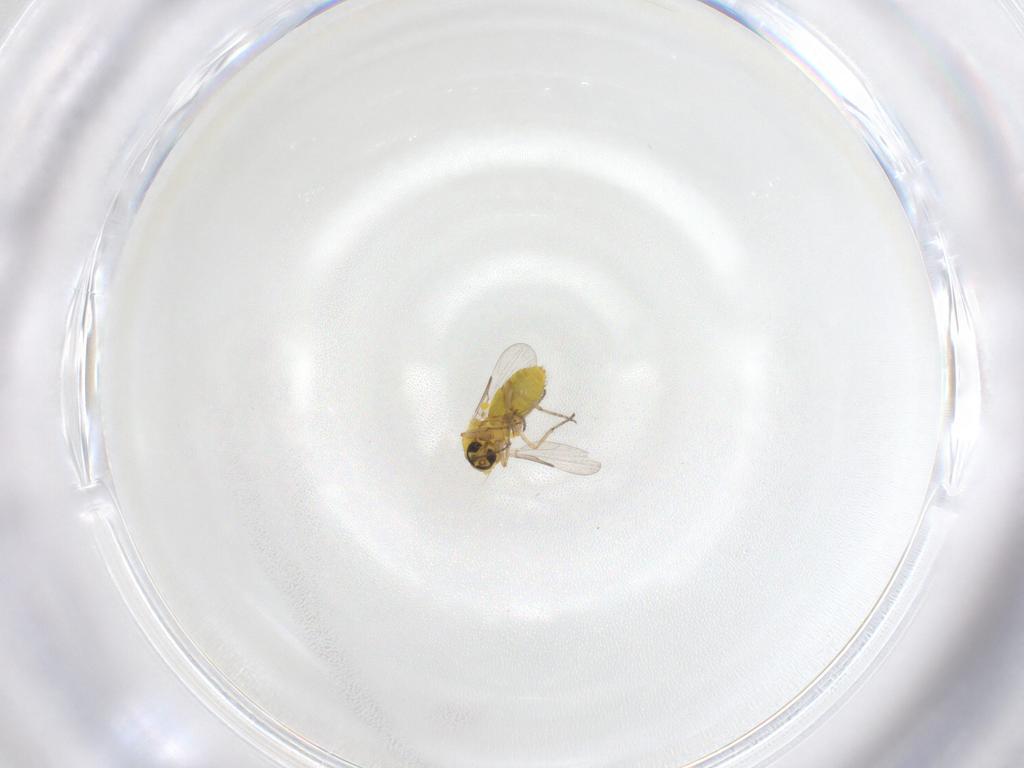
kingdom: Animalia
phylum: Arthropoda
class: Insecta
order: Diptera
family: Ceratopogonidae
